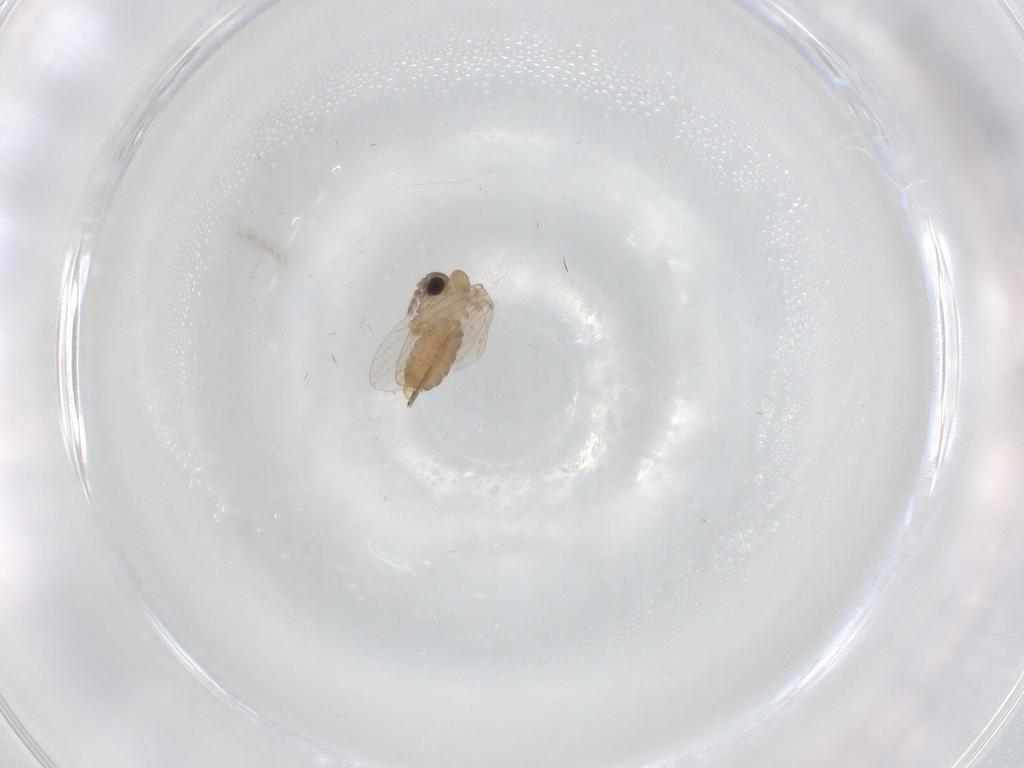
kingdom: Animalia
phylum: Arthropoda
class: Insecta
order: Diptera
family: Psychodidae
